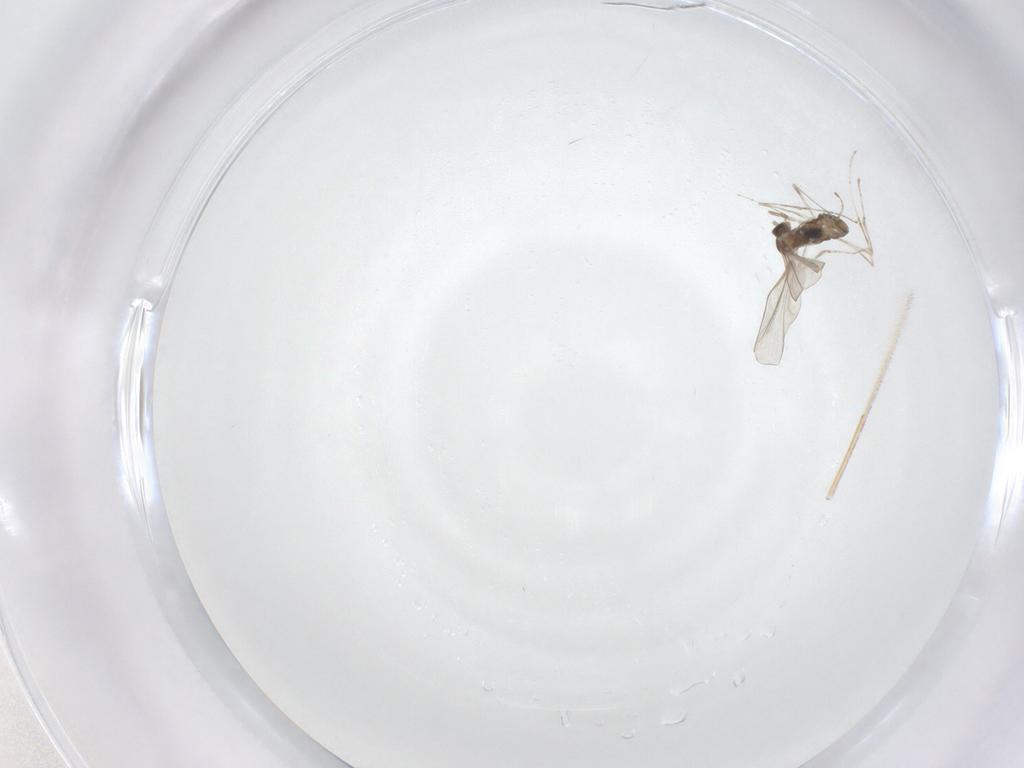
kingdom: Animalia
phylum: Arthropoda
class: Insecta
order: Diptera
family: Cecidomyiidae
